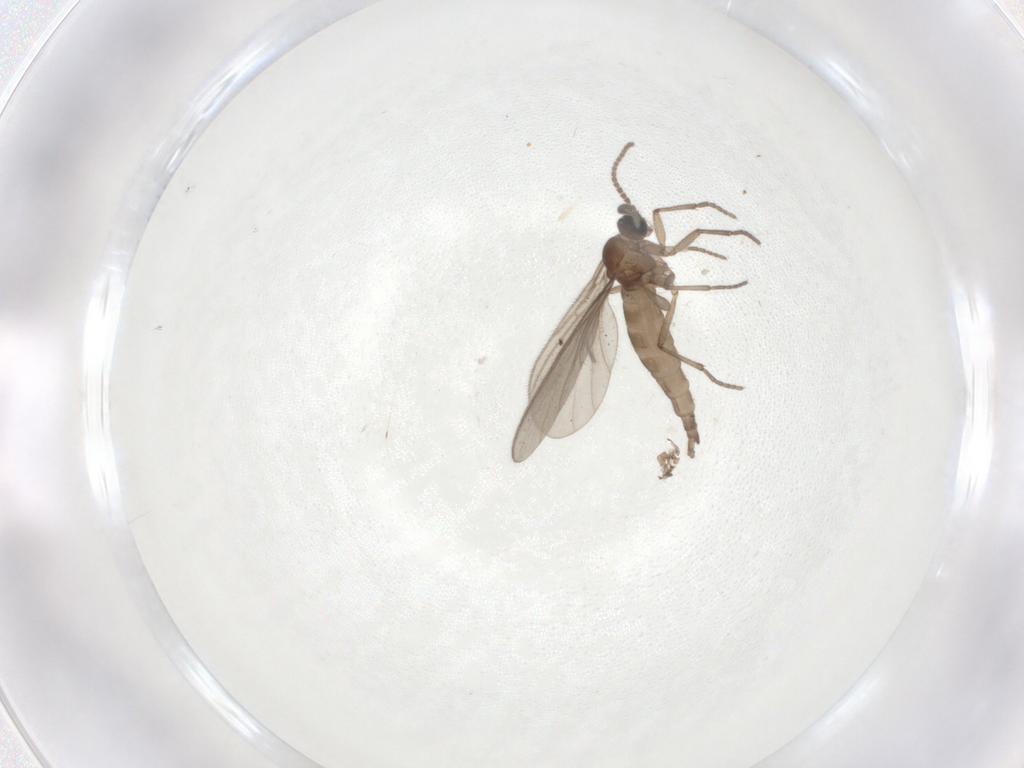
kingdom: Animalia
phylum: Arthropoda
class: Insecta
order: Diptera
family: Sciaridae
